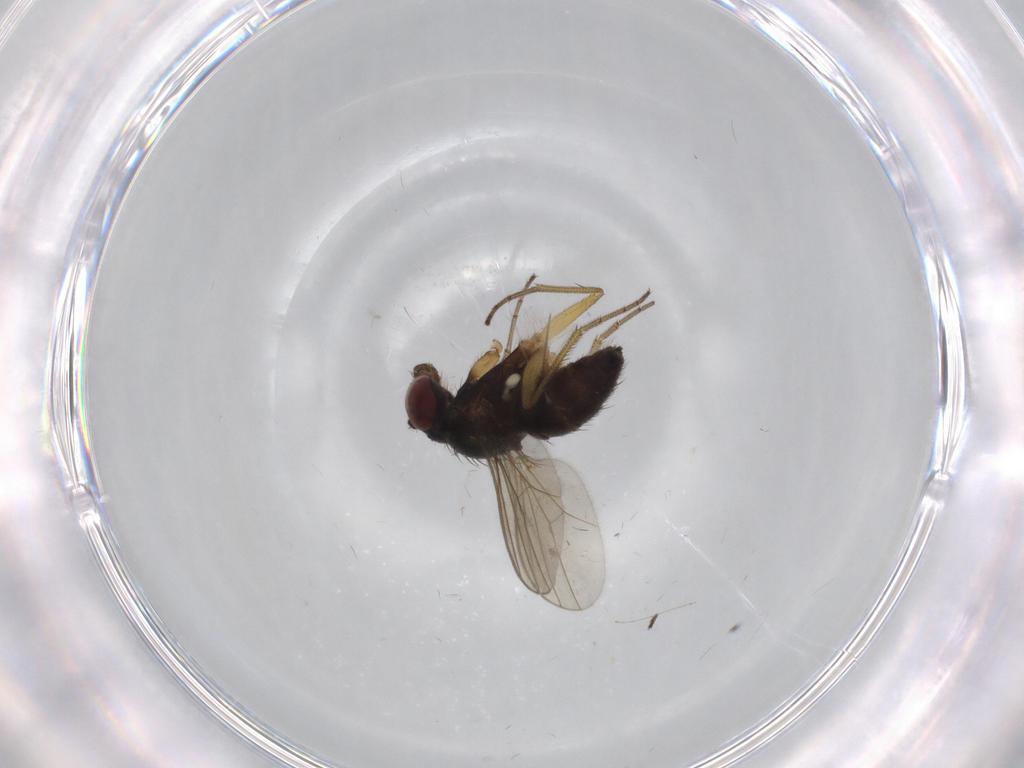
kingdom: Animalia
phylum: Arthropoda
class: Insecta
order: Diptera
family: Dolichopodidae
